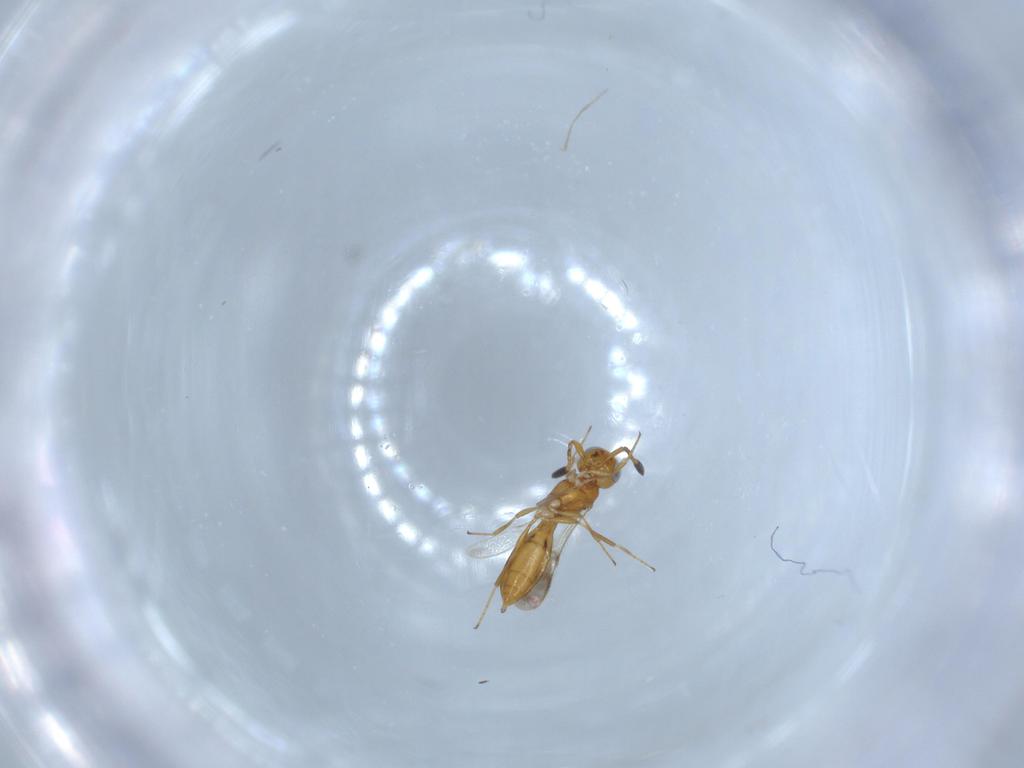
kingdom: Animalia
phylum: Arthropoda
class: Insecta
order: Hymenoptera
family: Scelionidae
